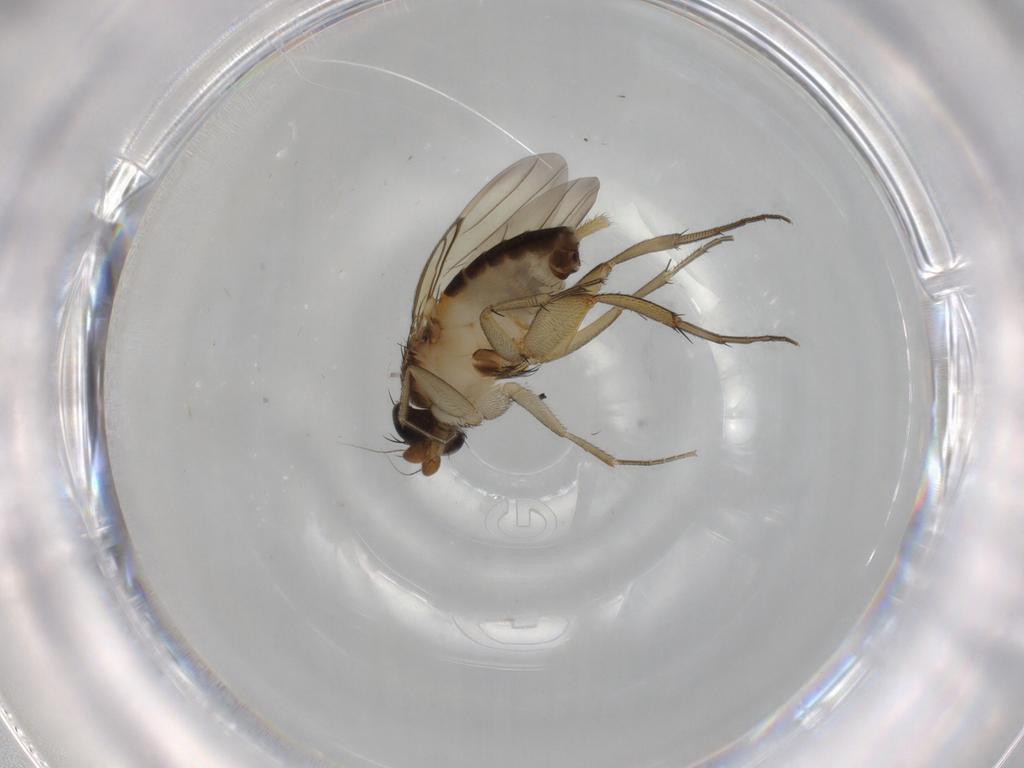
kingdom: Animalia
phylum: Arthropoda
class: Insecta
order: Diptera
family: Phoridae
